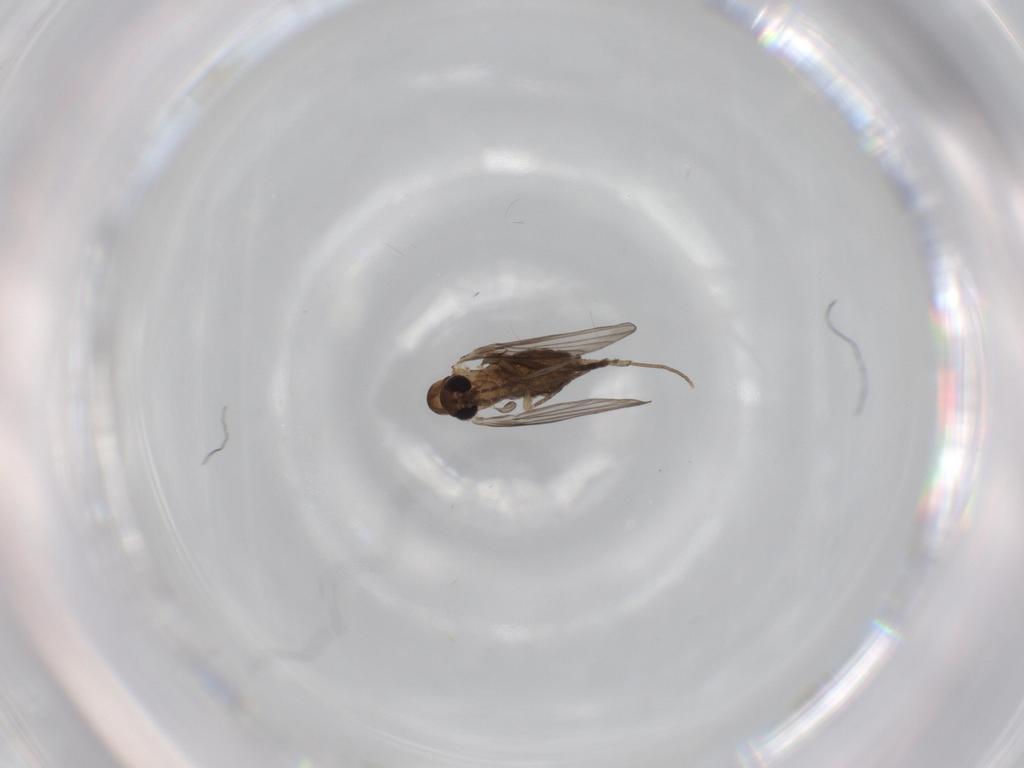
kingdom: Animalia
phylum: Arthropoda
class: Insecta
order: Diptera
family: Psychodidae
